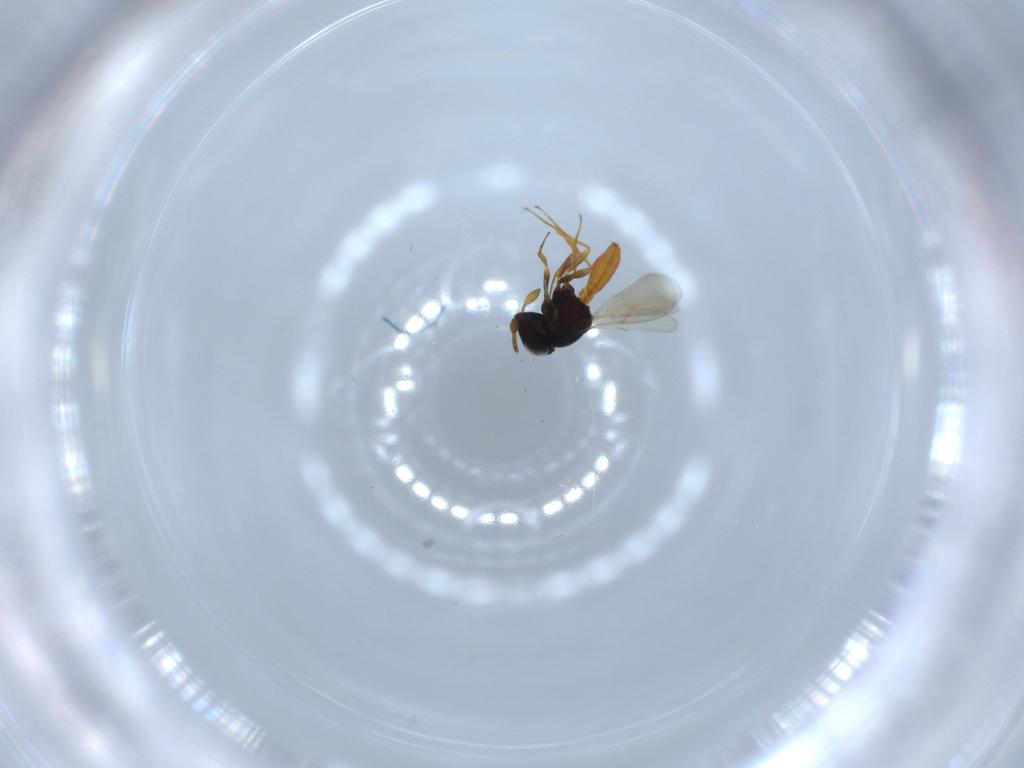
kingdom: Animalia
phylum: Arthropoda
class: Insecta
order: Hymenoptera
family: Scelionidae
